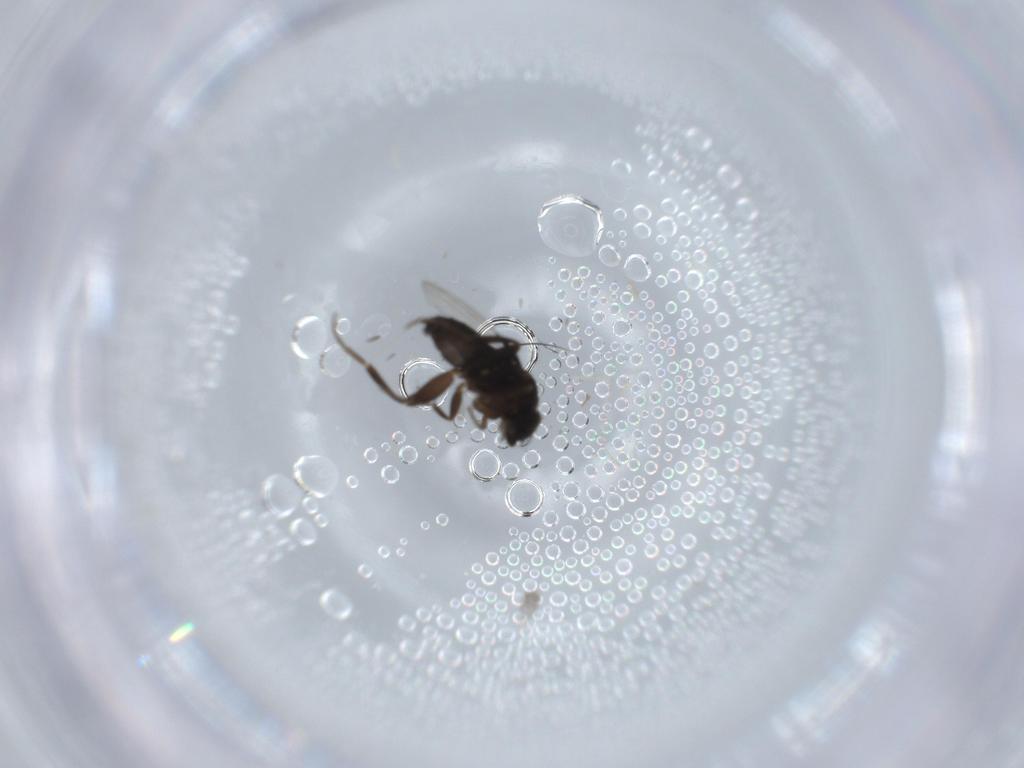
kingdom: Animalia
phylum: Arthropoda
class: Insecta
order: Diptera
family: Phoridae
